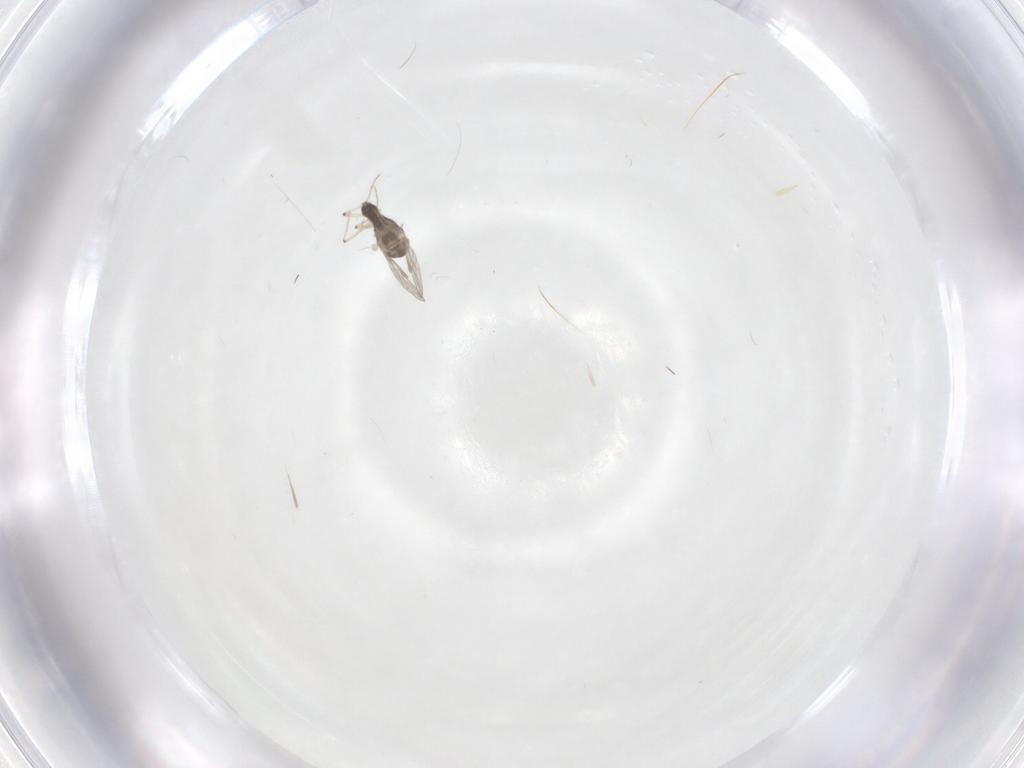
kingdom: Animalia
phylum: Arthropoda
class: Insecta
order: Diptera
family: Chironomidae
